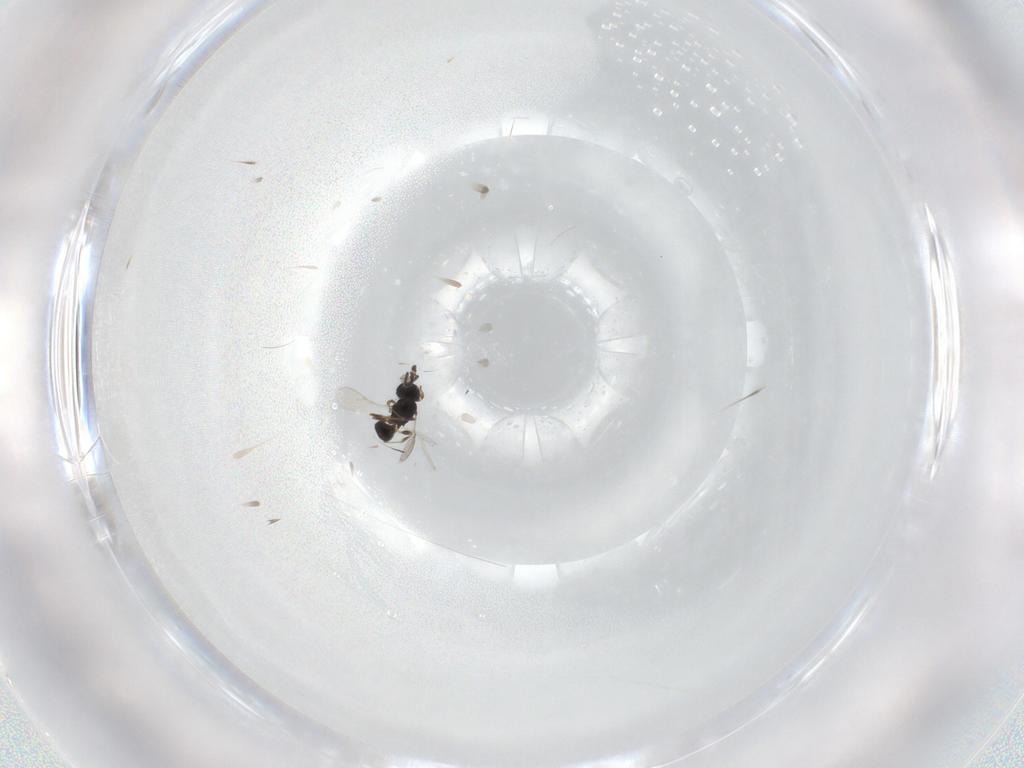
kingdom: Animalia
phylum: Arthropoda
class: Insecta
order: Hymenoptera
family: Scelionidae
